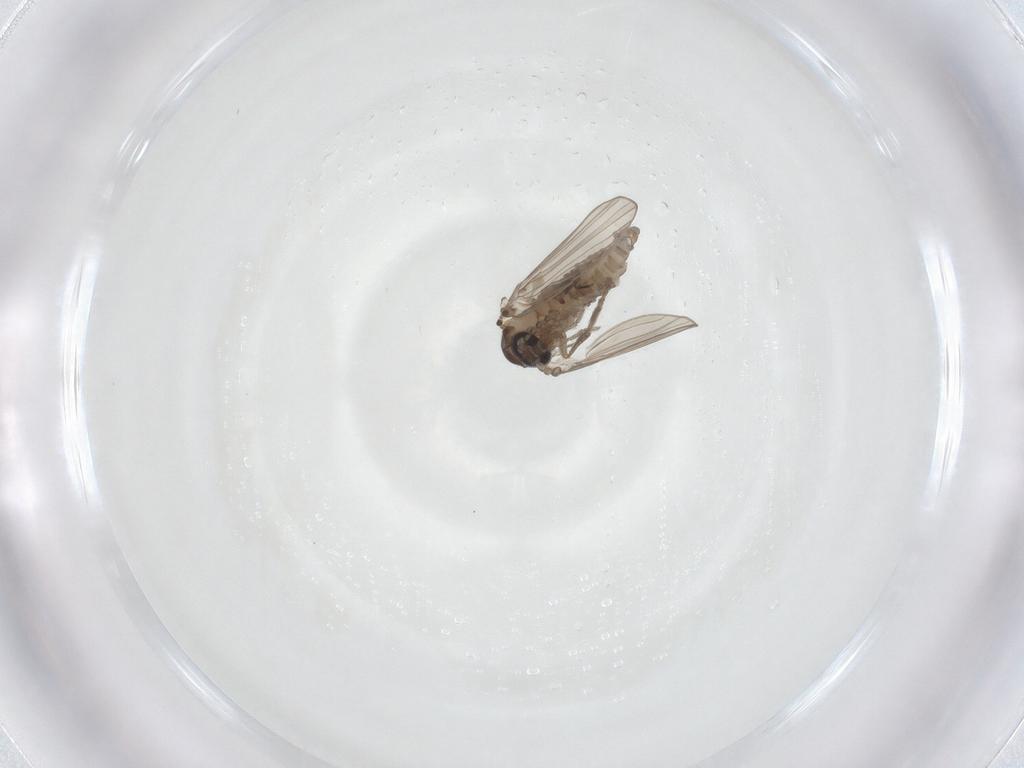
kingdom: Animalia
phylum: Arthropoda
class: Insecta
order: Diptera
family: Psychodidae
